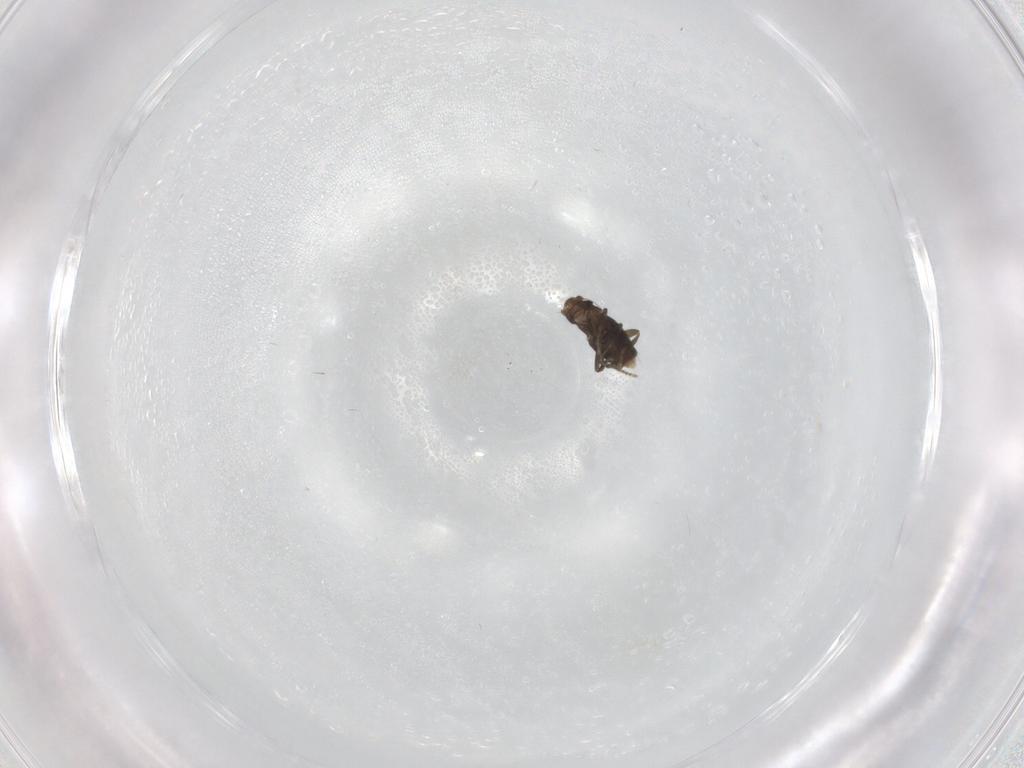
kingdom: Animalia
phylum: Arthropoda
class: Insecta
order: Diptera
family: Phoridae
